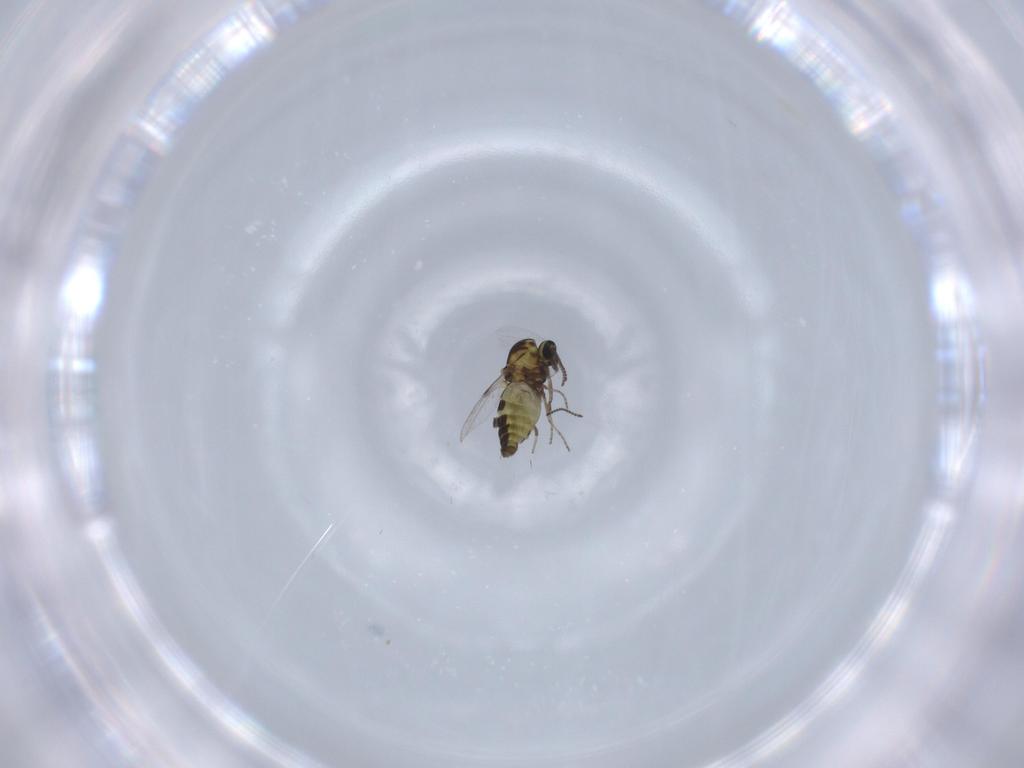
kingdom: Animalia
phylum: Arthropoda
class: Insecta
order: Diptera
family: Ceratopogonidae
